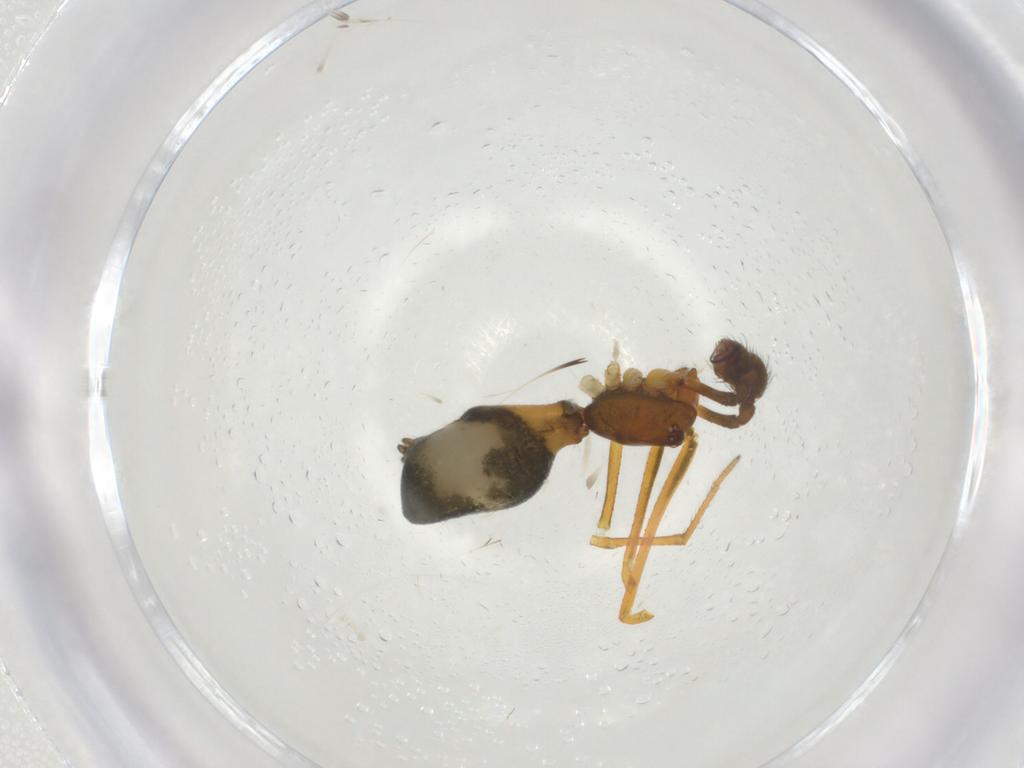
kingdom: Animalia
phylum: Arthropoda
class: Arachnida
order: Araneae
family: Theridiidae
